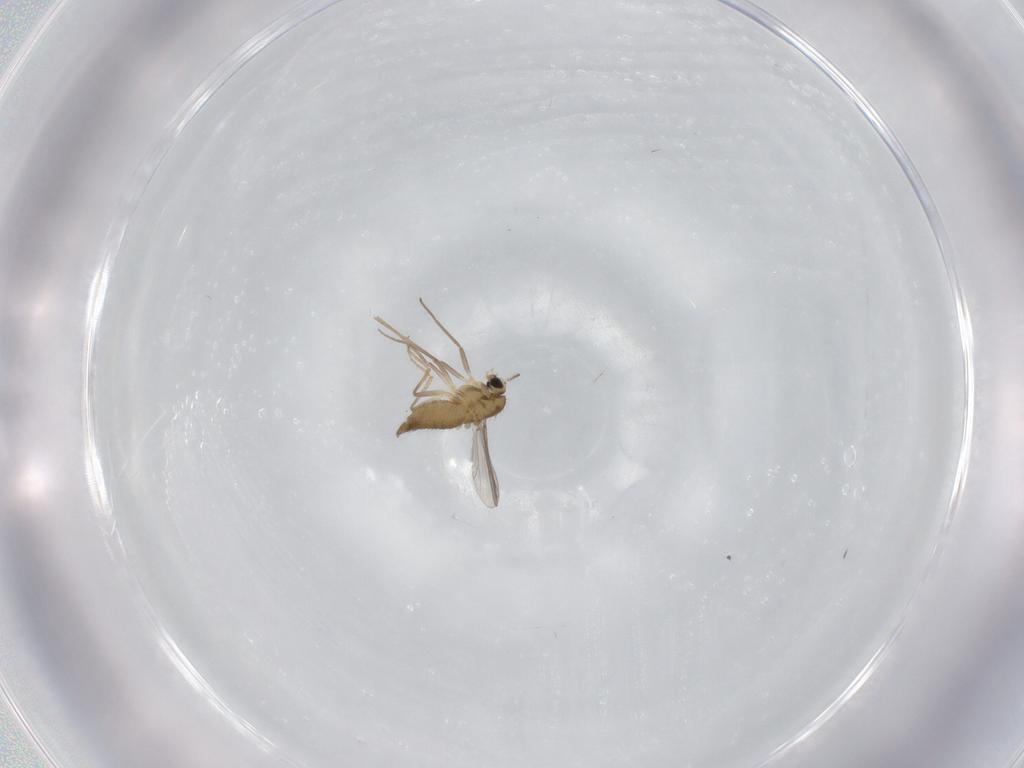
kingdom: Animalia
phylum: Arthropoda
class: Insecta
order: Diptera
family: Chironomidae
